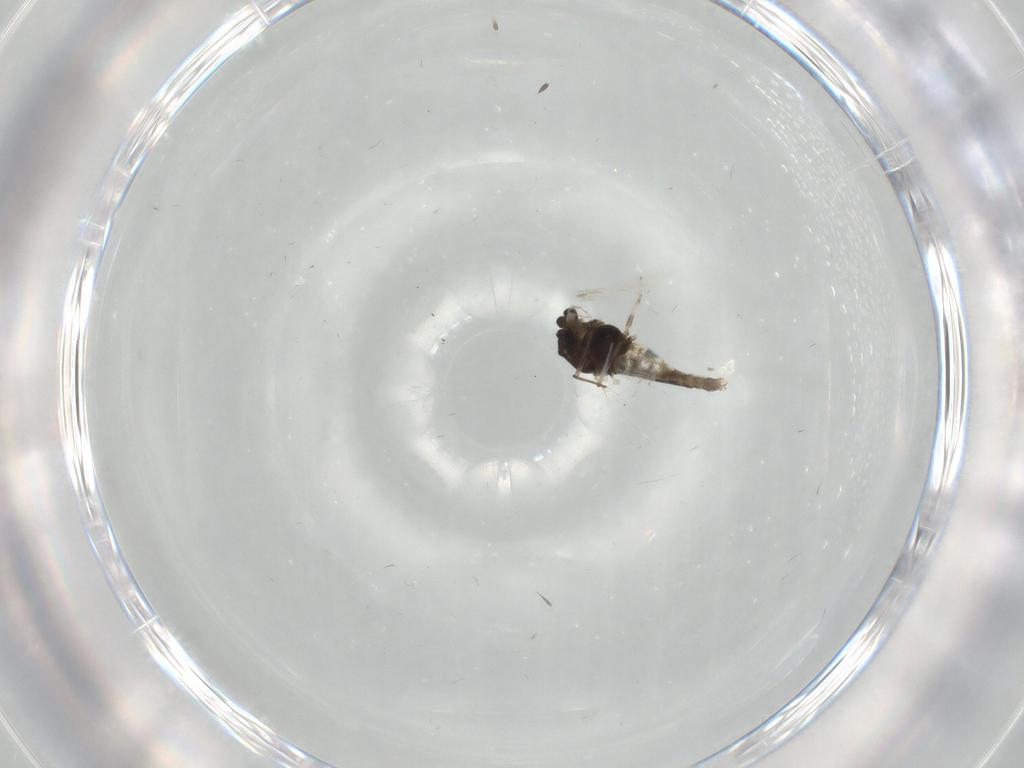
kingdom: Animalia
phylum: Arthropoda
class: Insecta
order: Diptera
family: Chironomidae
